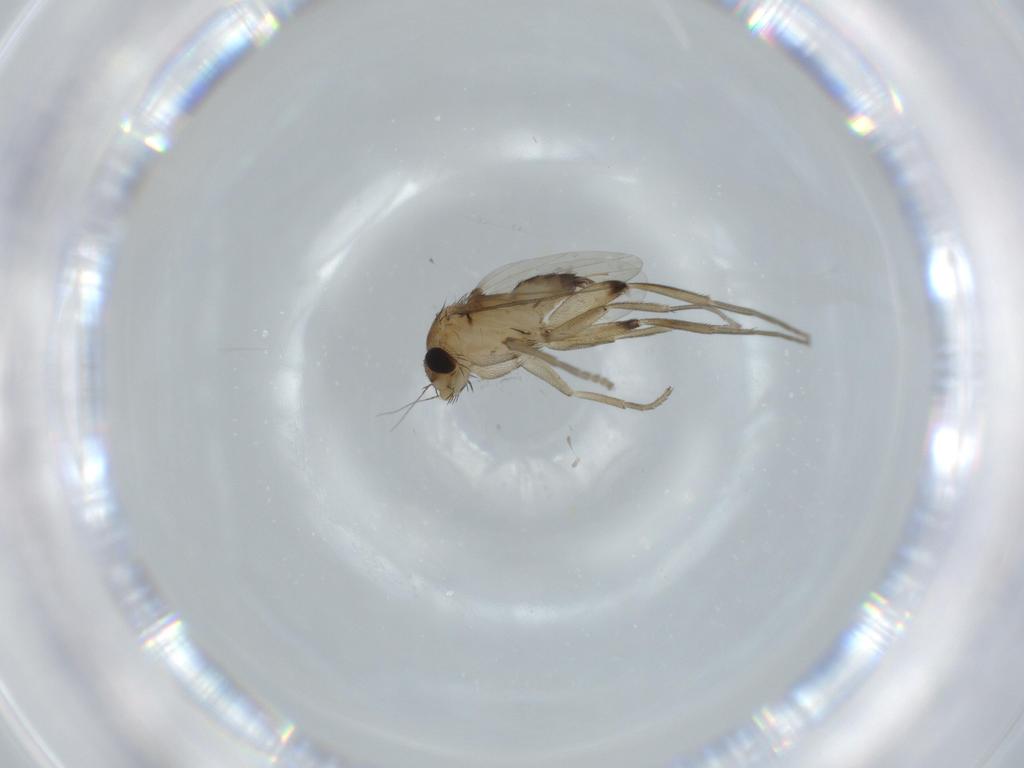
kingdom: Animalia
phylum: Arthropoda
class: Insecta
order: Diptera
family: Phoridae
